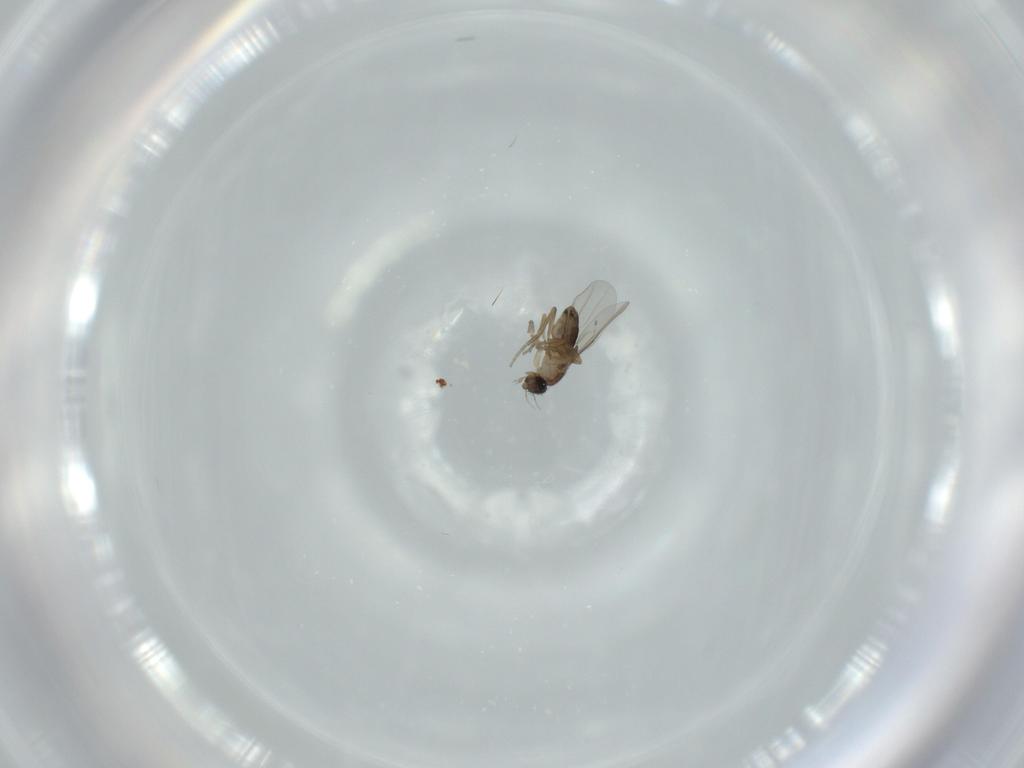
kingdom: Animalia
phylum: Arthropoda
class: Insecta
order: Diptera
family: Phoridae
